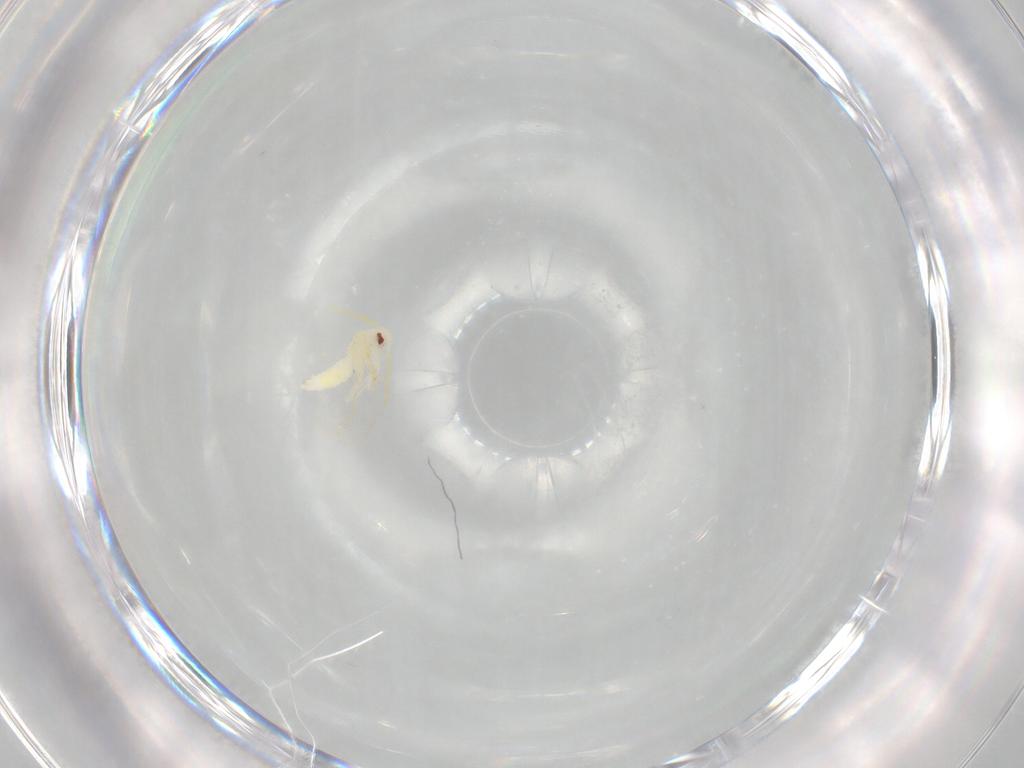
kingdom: Animalia
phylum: Arthropoda
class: Insecta
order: Hemiptera
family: Aleyrodidae
